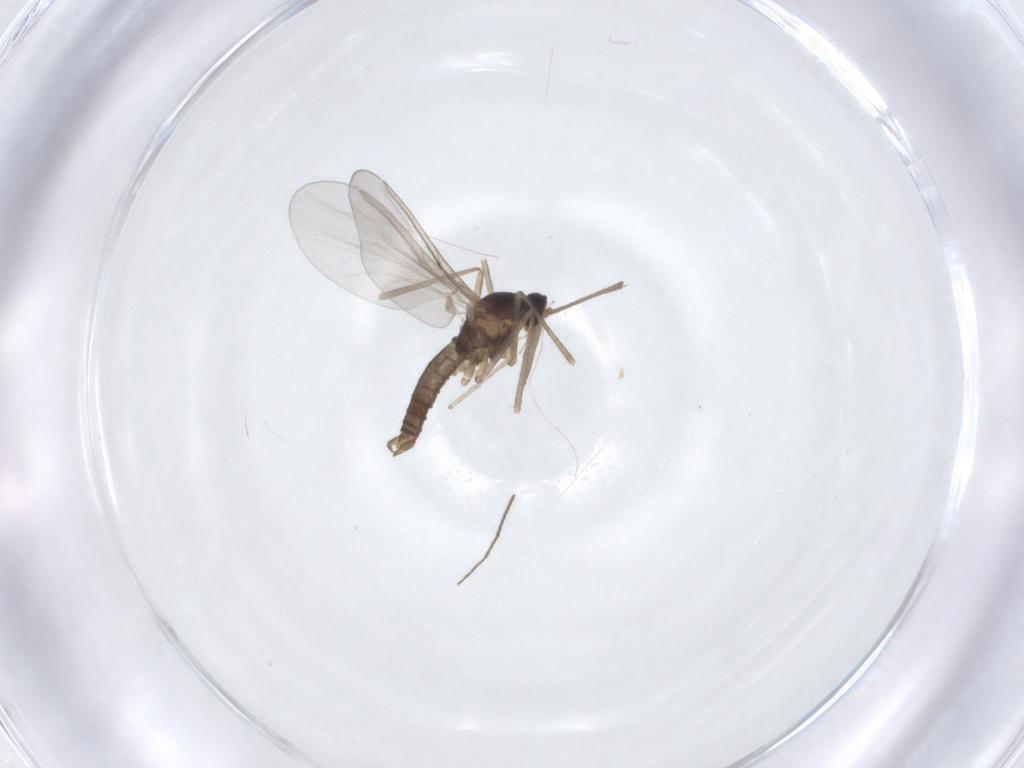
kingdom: Animalia
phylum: Arthropoda
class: Insecta
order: Diptera
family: Cecidomyiidae
